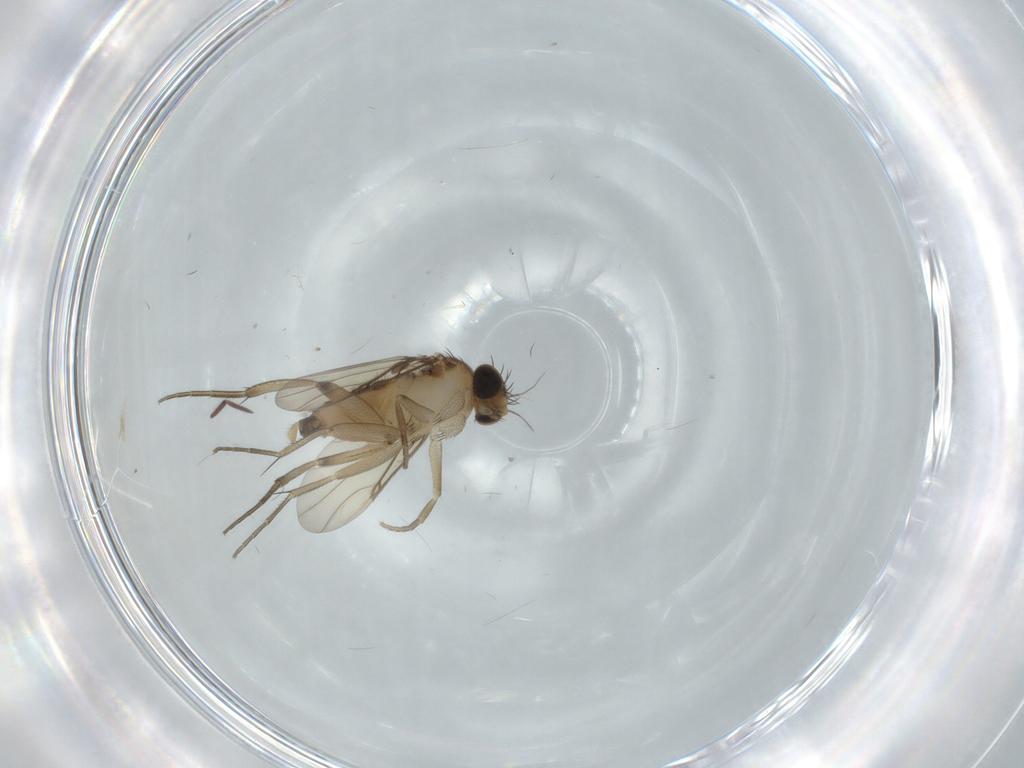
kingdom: Animalia
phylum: Arthropoda
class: Insecta
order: Diptera
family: Phoridae
